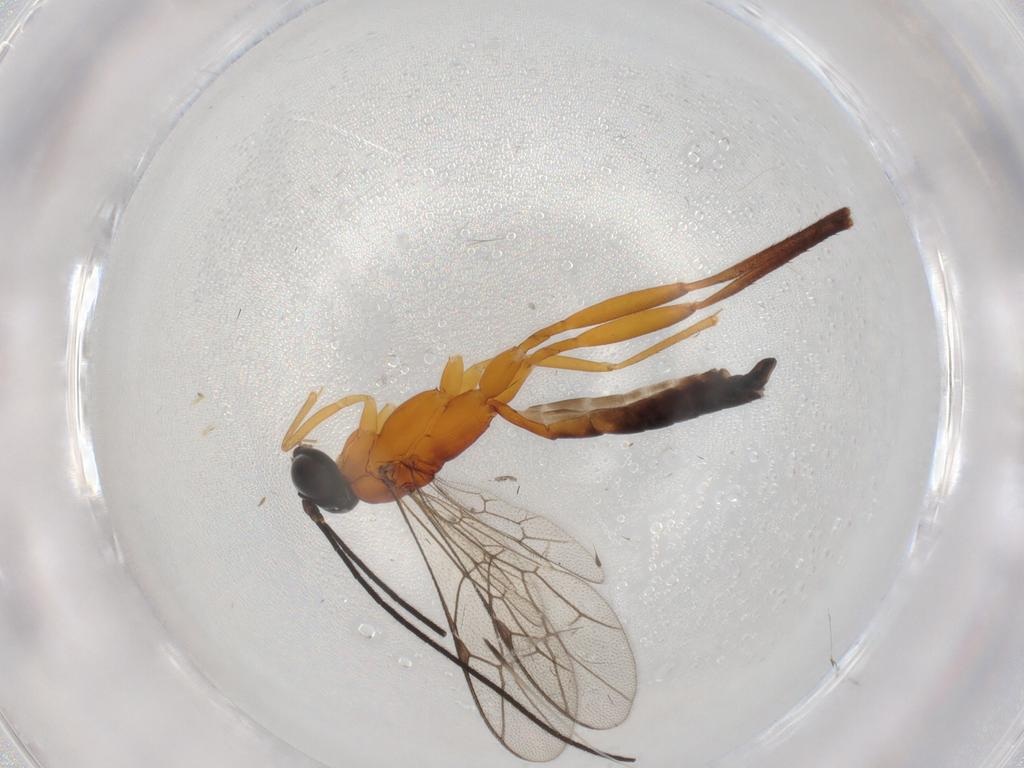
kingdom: Animalia
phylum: Arthropoda
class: Insecta
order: Hymenoptera
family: Ichneumonidae
